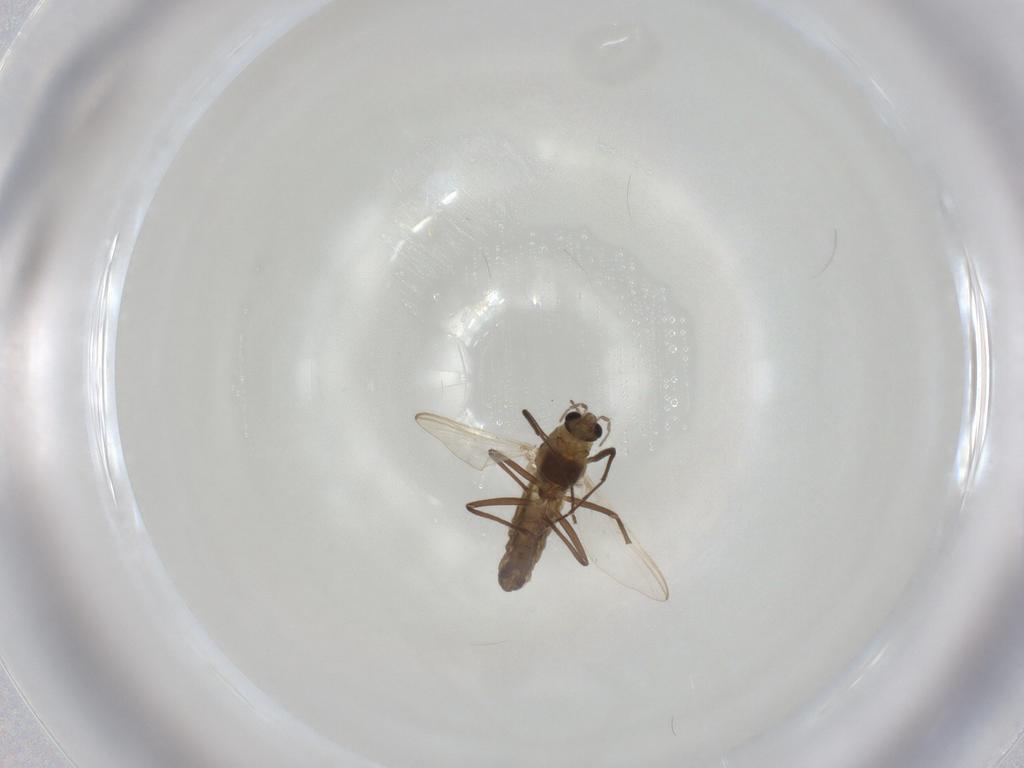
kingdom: Animalia
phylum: Arthropoda
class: Insecta
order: Diptera
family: Chironomidae
